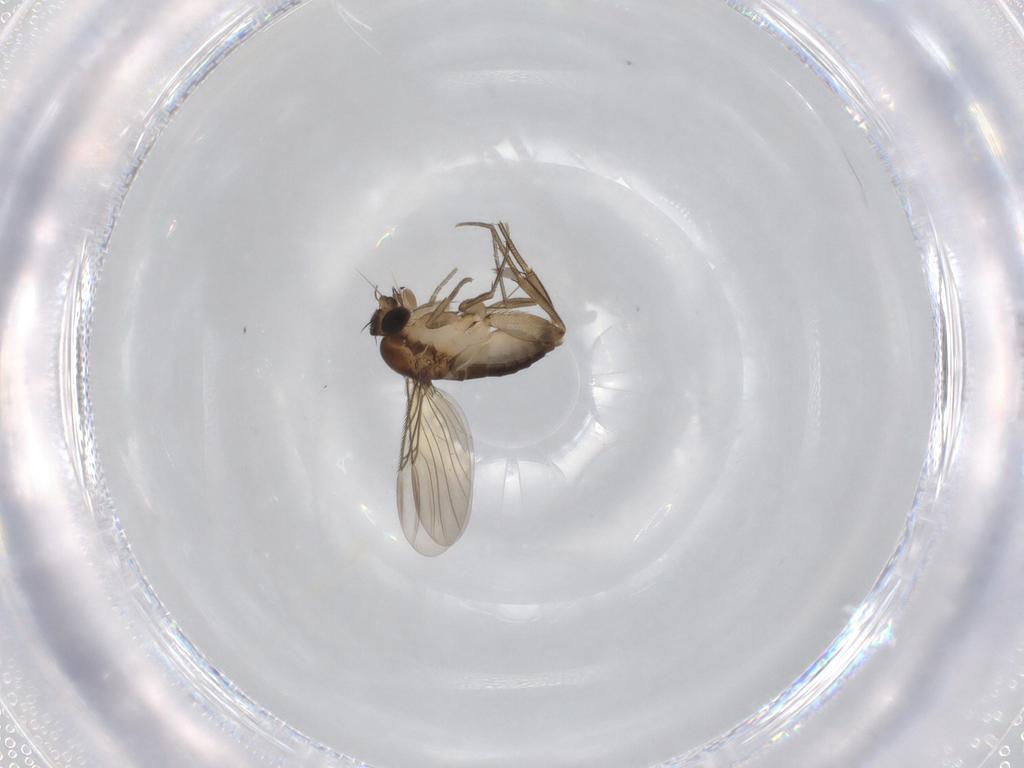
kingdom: Animalia
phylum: Arthropoda
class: Insecta
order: Diptera
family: Phoridae
